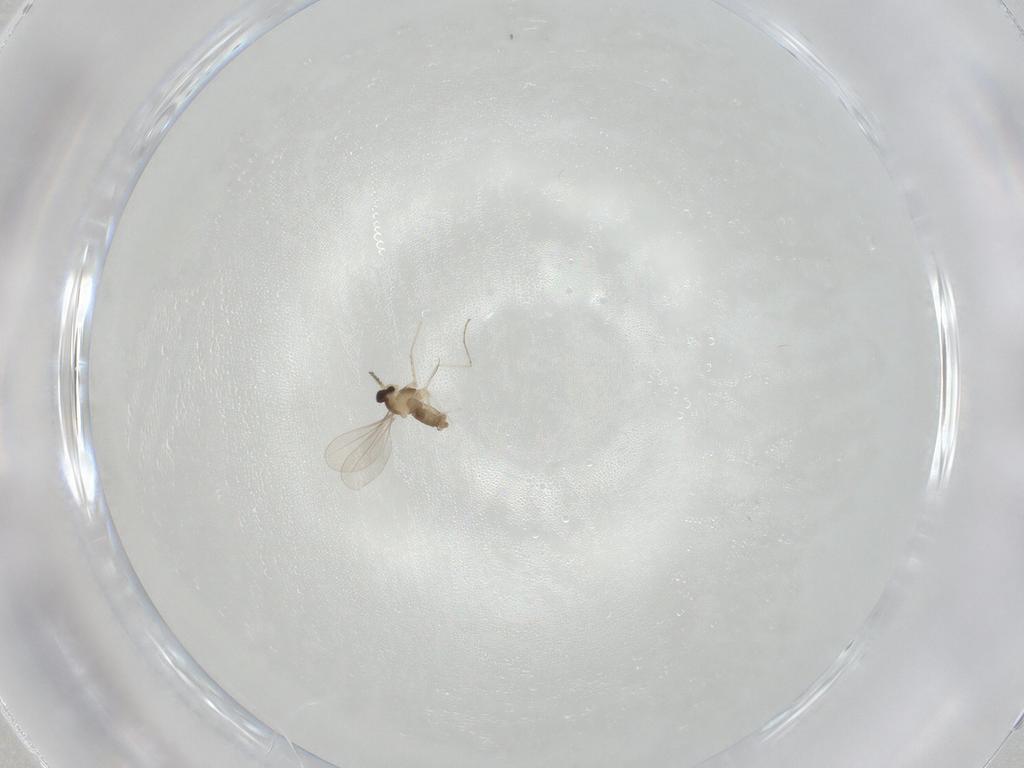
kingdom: Animalia
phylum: Arthropoda
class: Insecta
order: Diptera
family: Cecidomyiidae
